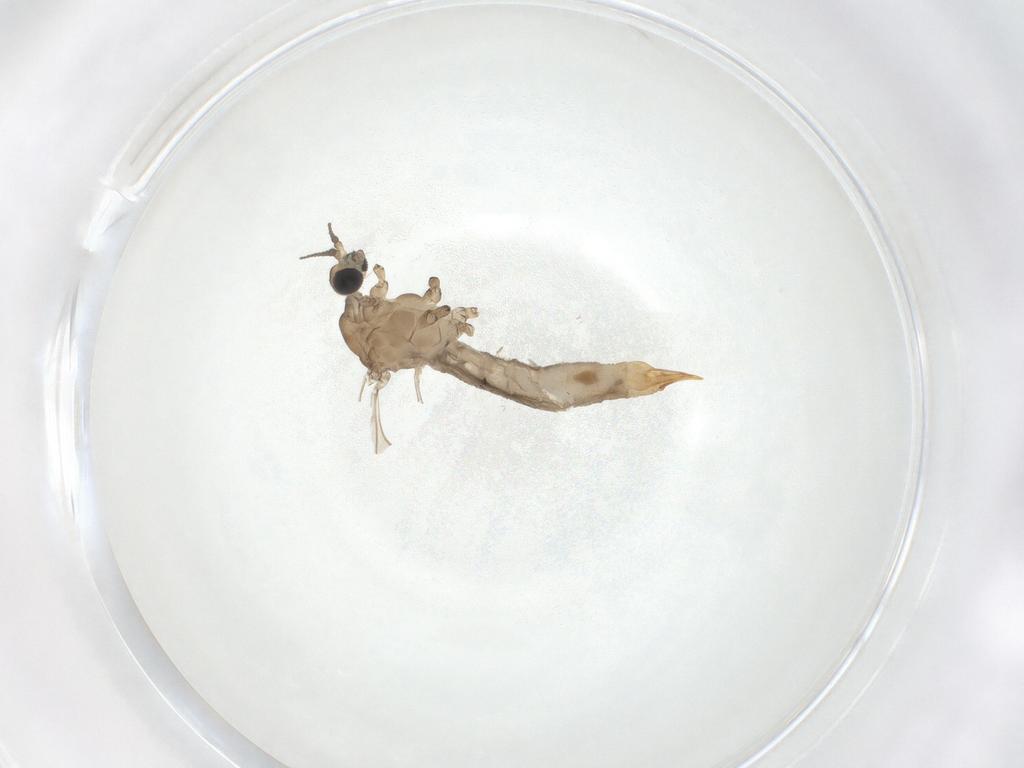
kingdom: Animalia
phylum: Arthropoda
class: Insecta
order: Diptera
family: Limoniidae
